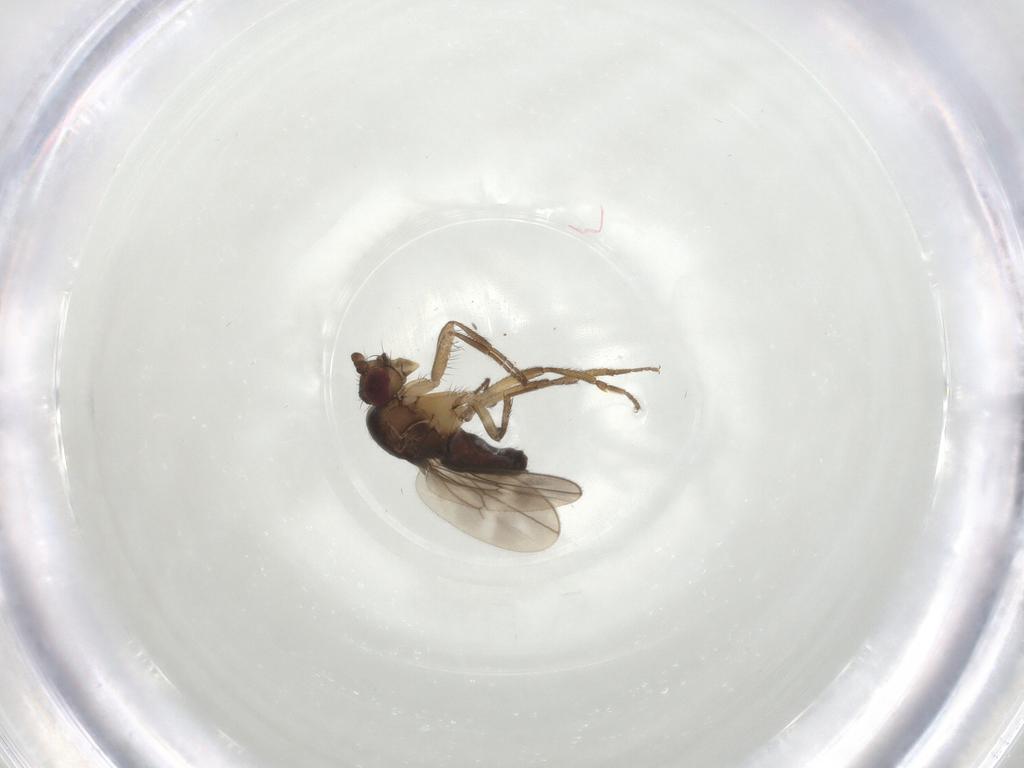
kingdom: Animalia
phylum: Arthropoda
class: Insecta
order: Diptera
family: Sphaeroceridae
